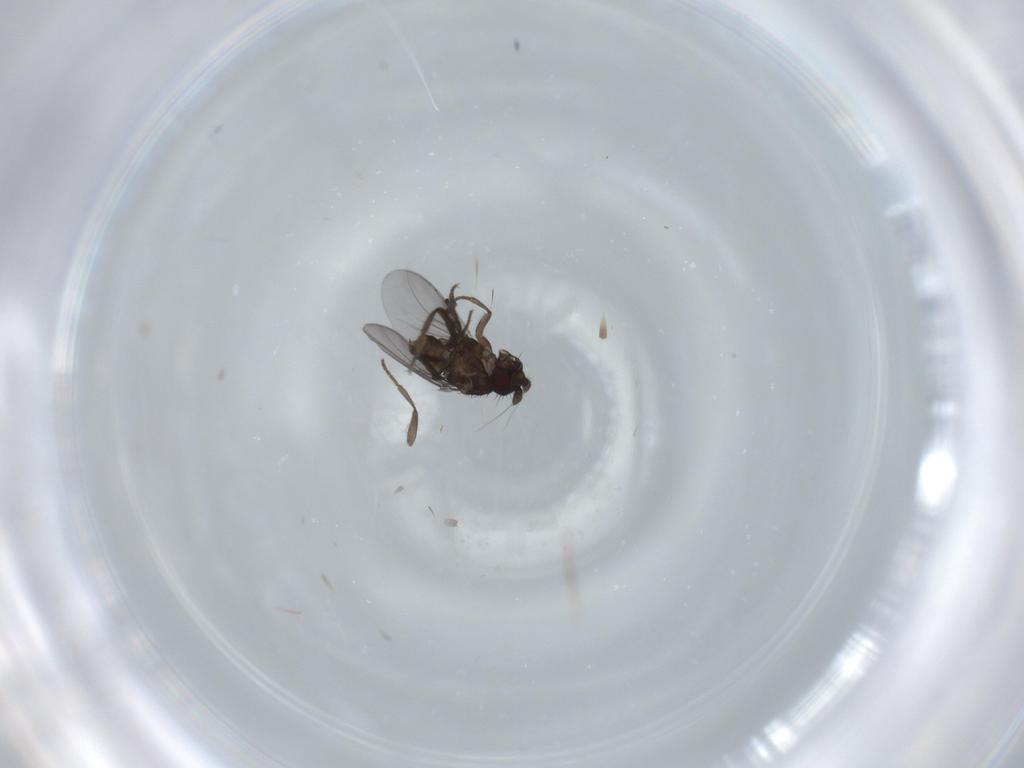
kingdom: Animalia
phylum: Arthropoda
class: Insecta
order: Diptera
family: Sphaeroceridae
